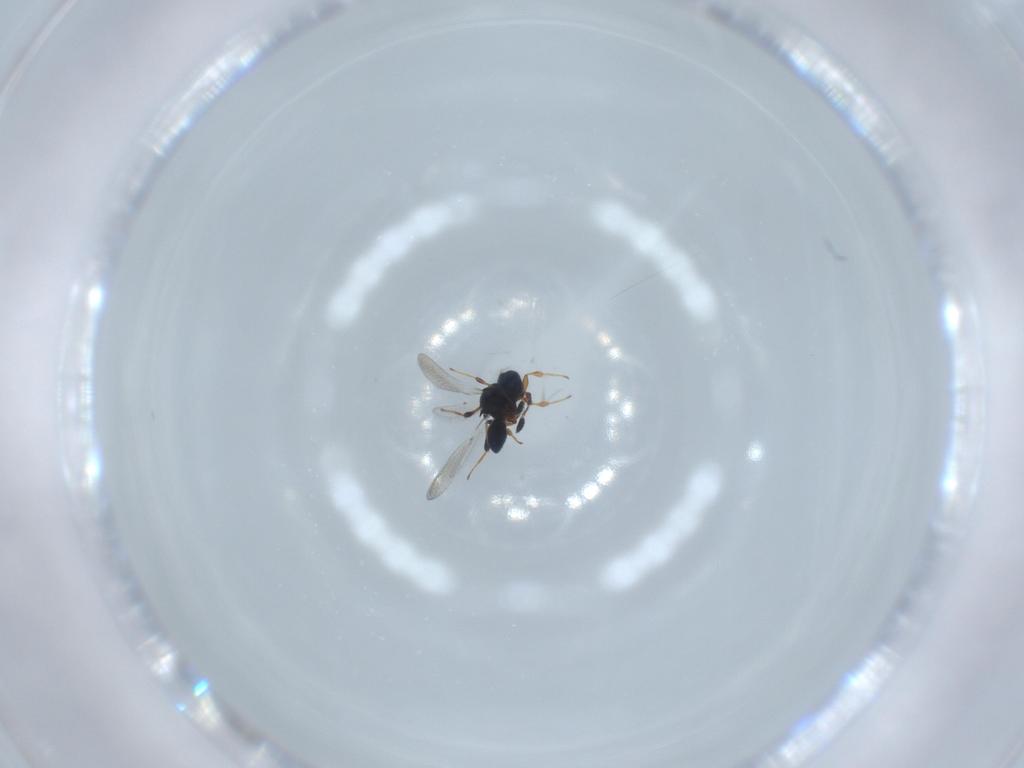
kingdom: Animalia
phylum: Arthropoda
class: Insecta
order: Hymenoptera
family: Platygastridae
